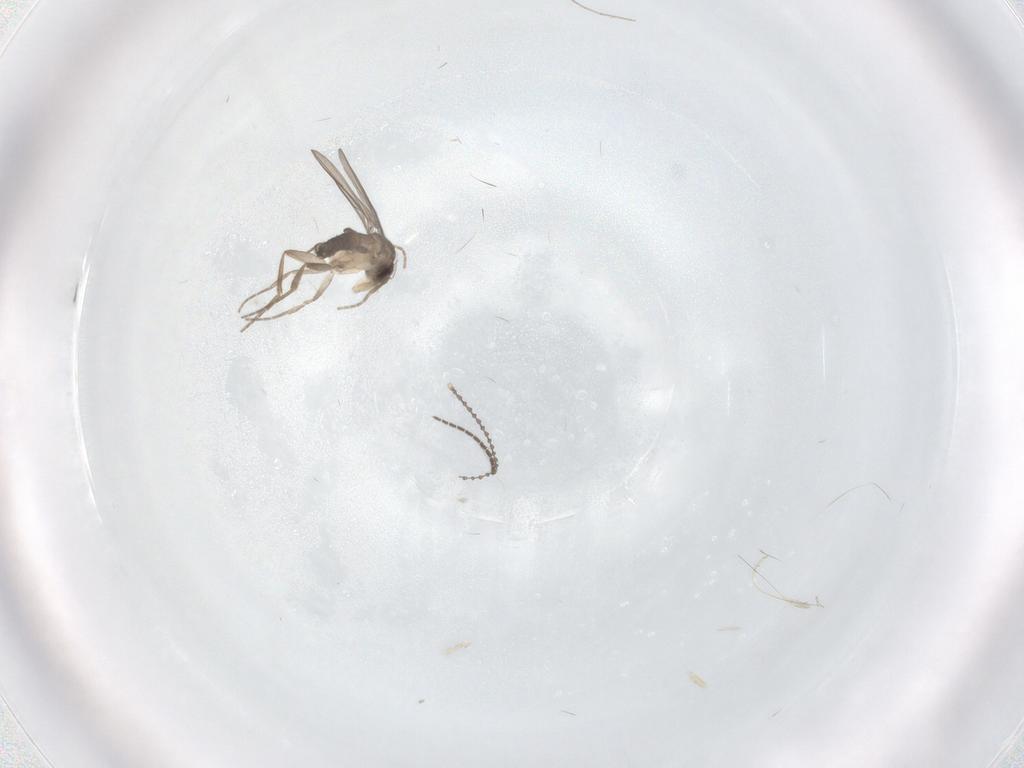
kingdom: Animalia
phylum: Arthropoda
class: Insecta
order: Diptera
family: Cecidomyiidae
